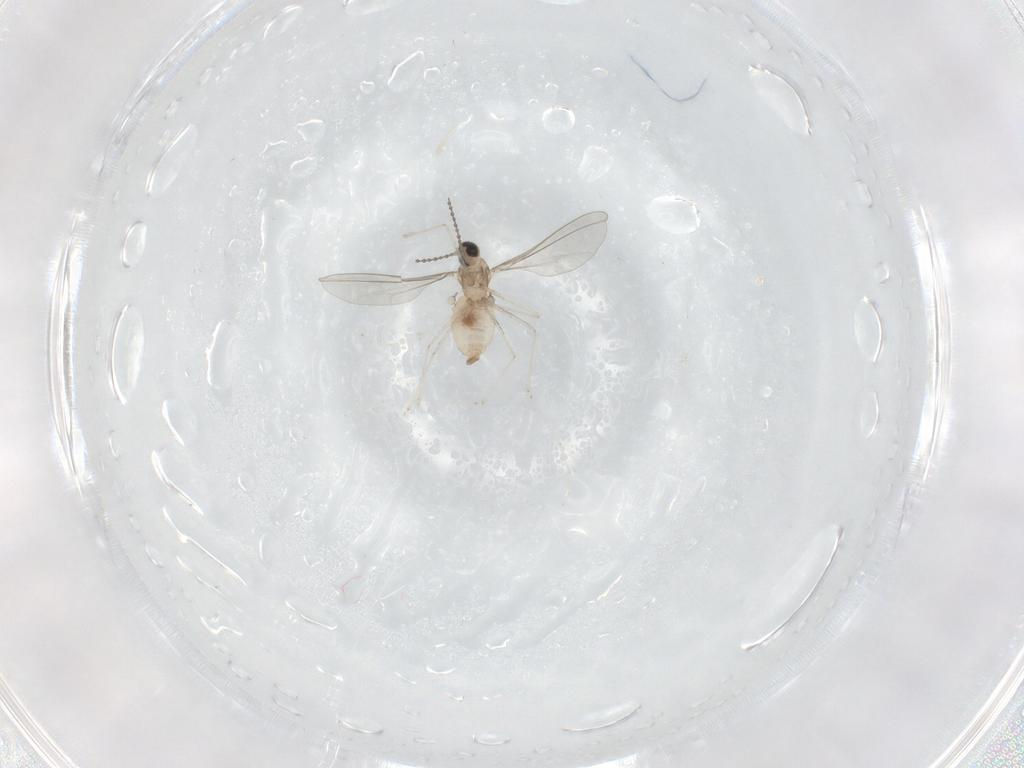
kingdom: Animalia
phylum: Arthropoda
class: Insecta
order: Diptera
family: Cecidomyiidae
